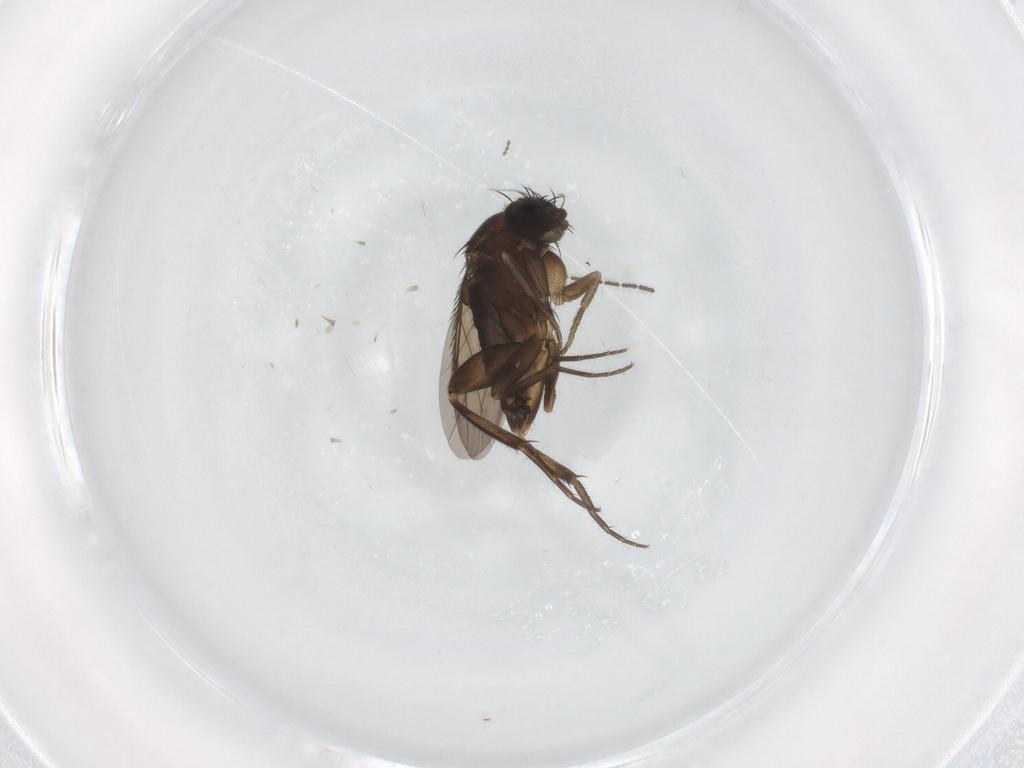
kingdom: Animalia
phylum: Arthropoda
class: Insecta
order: Diptera
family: Phoridae
